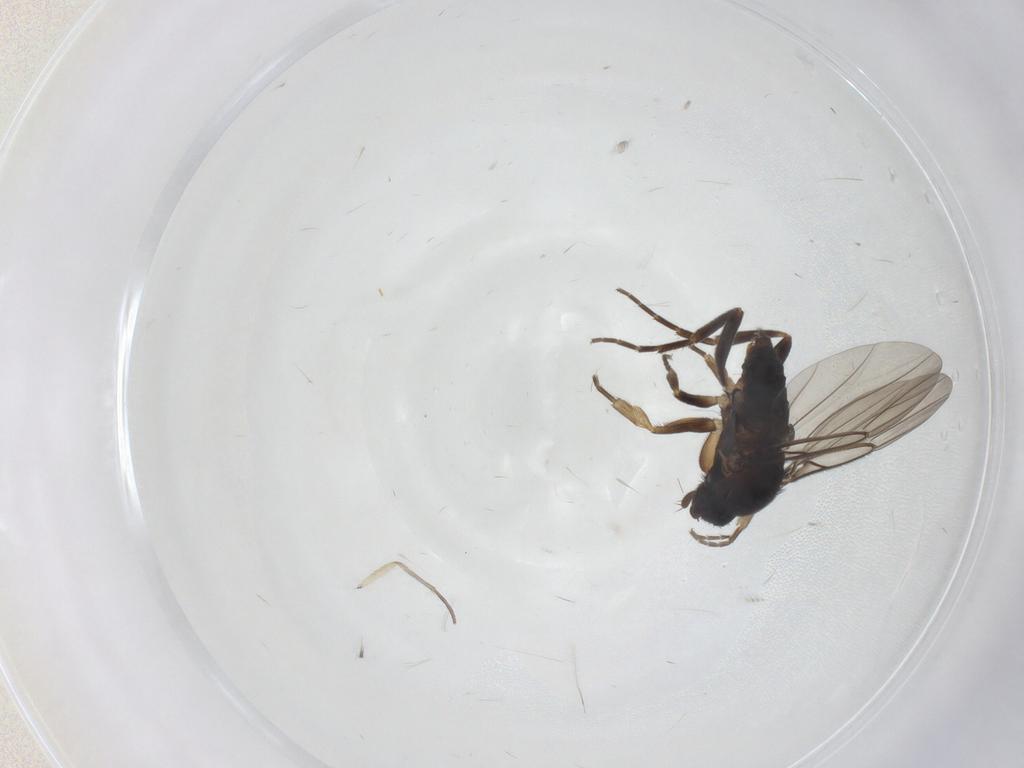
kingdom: Animalia
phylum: Arthropoda
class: Insecta
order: Diptera
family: Phoridae
